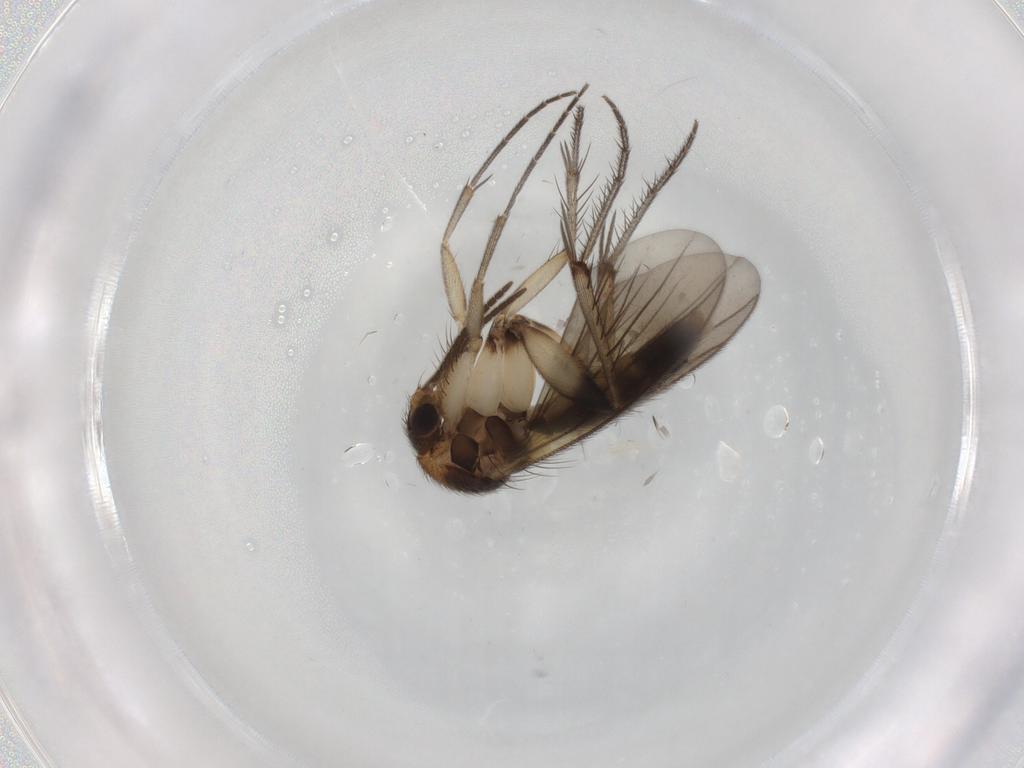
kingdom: Animalia
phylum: Arthropoda
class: Insecta
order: Diptera
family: Mycetophilidae
